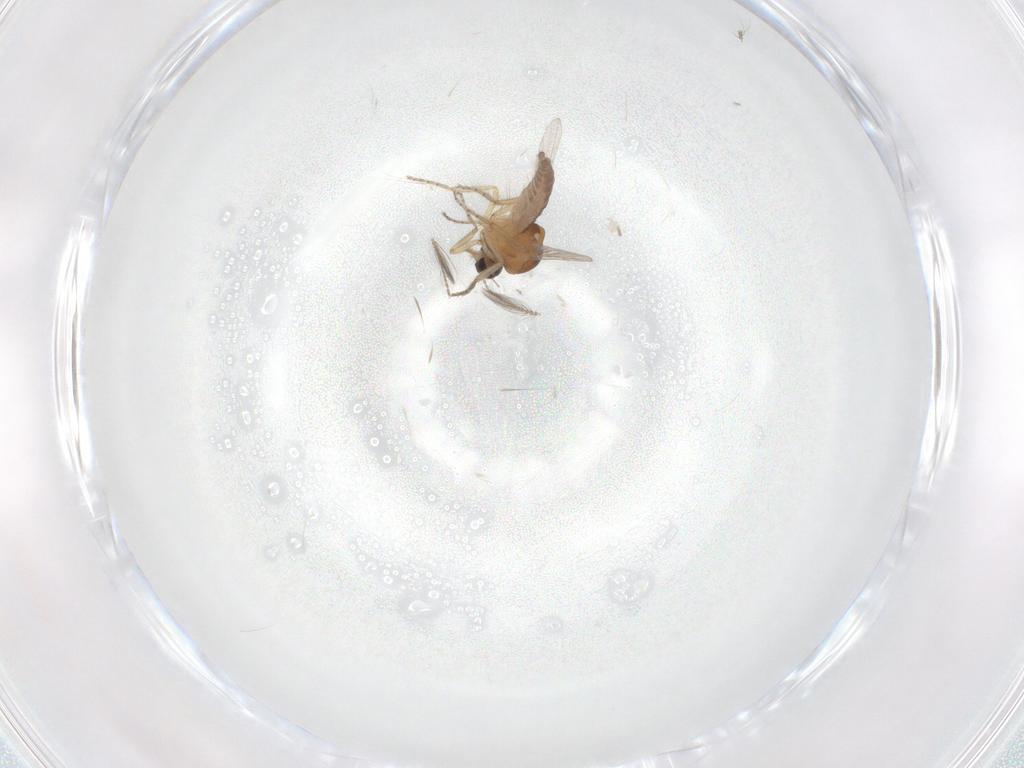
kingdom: Animalia
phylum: Arthropoda
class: Insecta
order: Diptera
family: Ceratopogonidae
